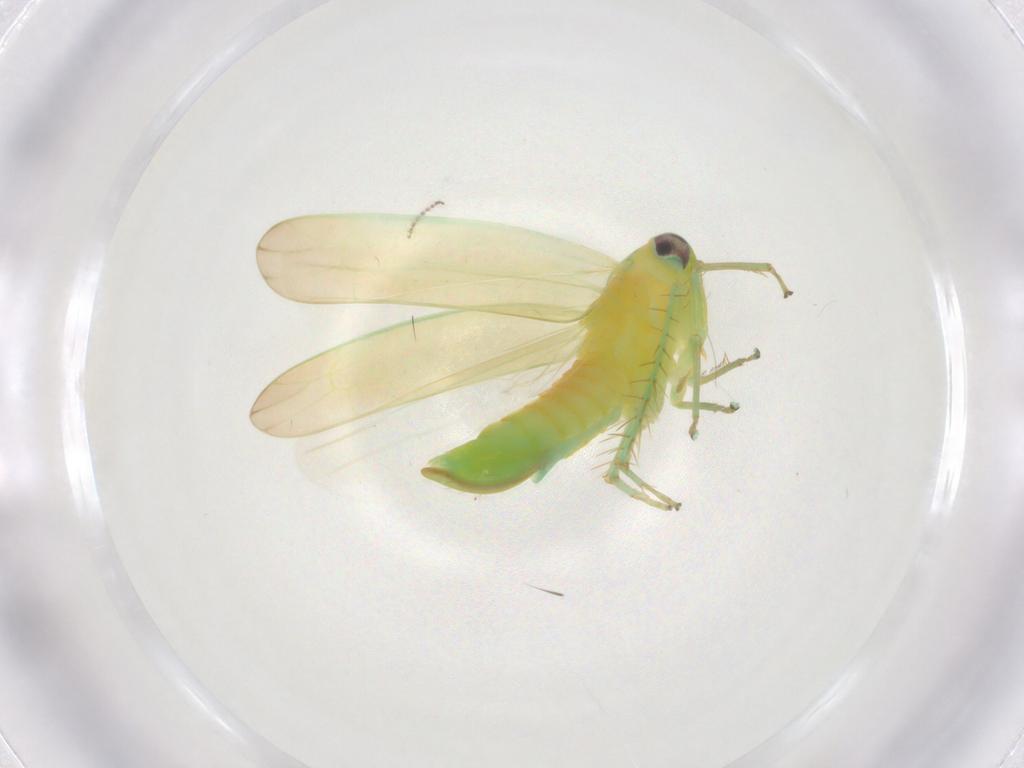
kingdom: Animalia
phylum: Arthropoda
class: Insecta
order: Hemiptera
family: Cicadellidae
